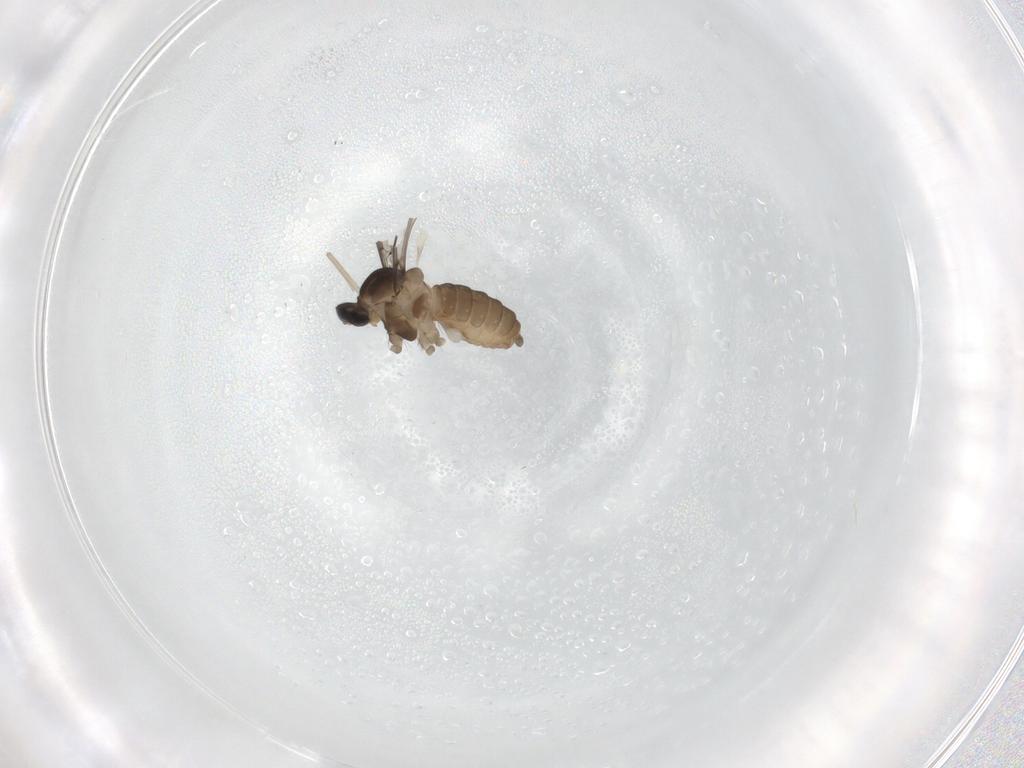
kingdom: Animalia
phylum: Arthropoda
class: Insecta
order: Diptera
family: Cecidomyiidae
